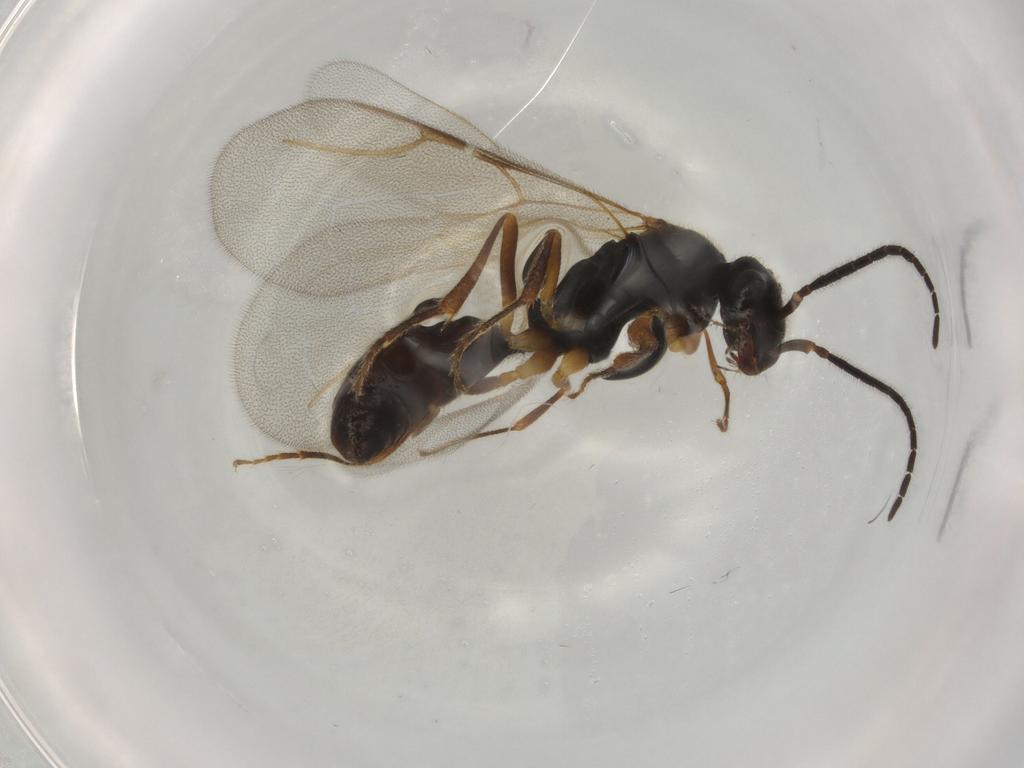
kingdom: Animalia
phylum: Arthropoda
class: Insecta
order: Hymenoptera
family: Bethylidae
